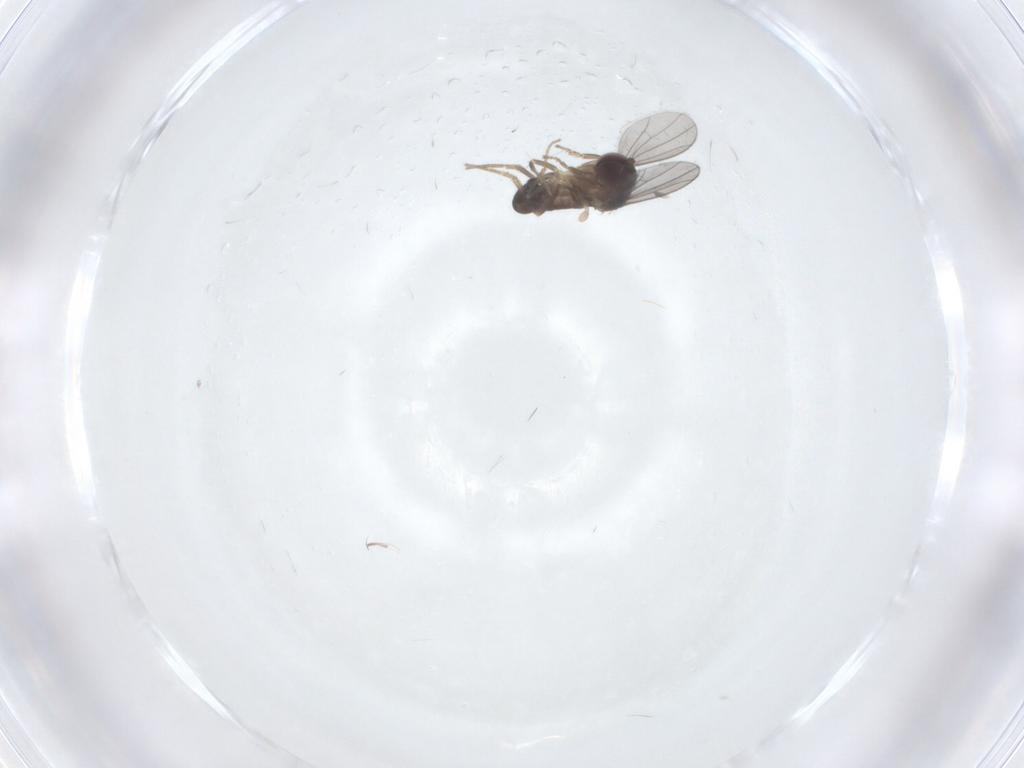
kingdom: Animalia
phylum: Arthropoda
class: Insecta
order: Diptera
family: Dolichopodidae
